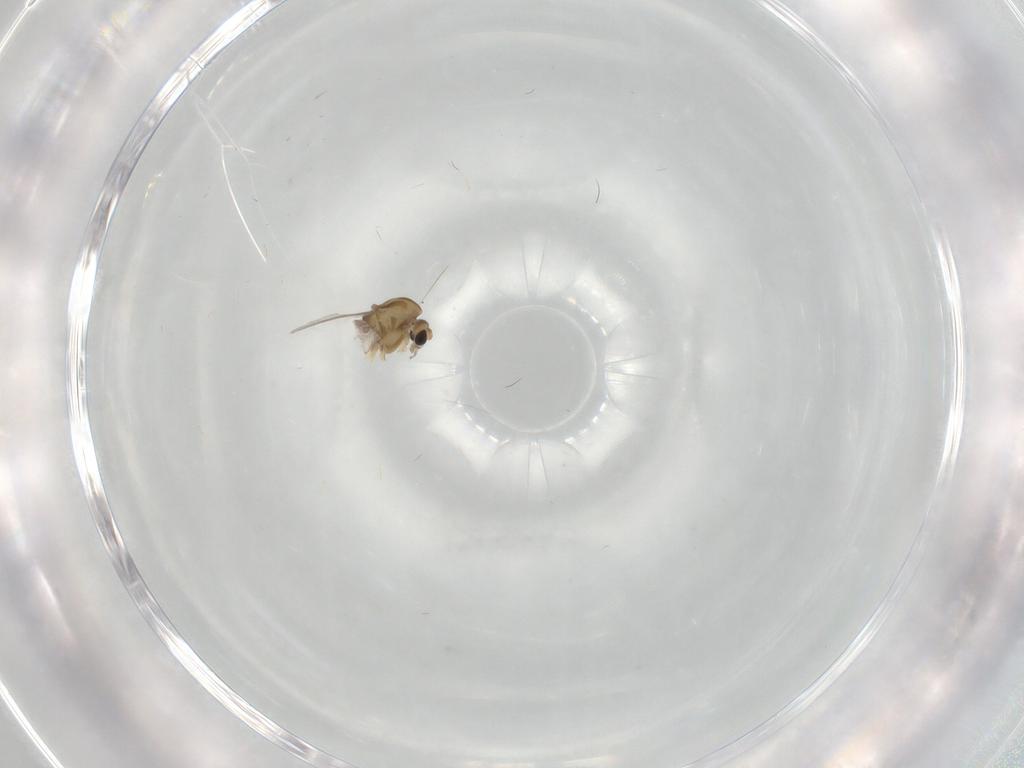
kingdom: Animalia
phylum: Arthropoda
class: Insecta
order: Diptera
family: Chironomidae
